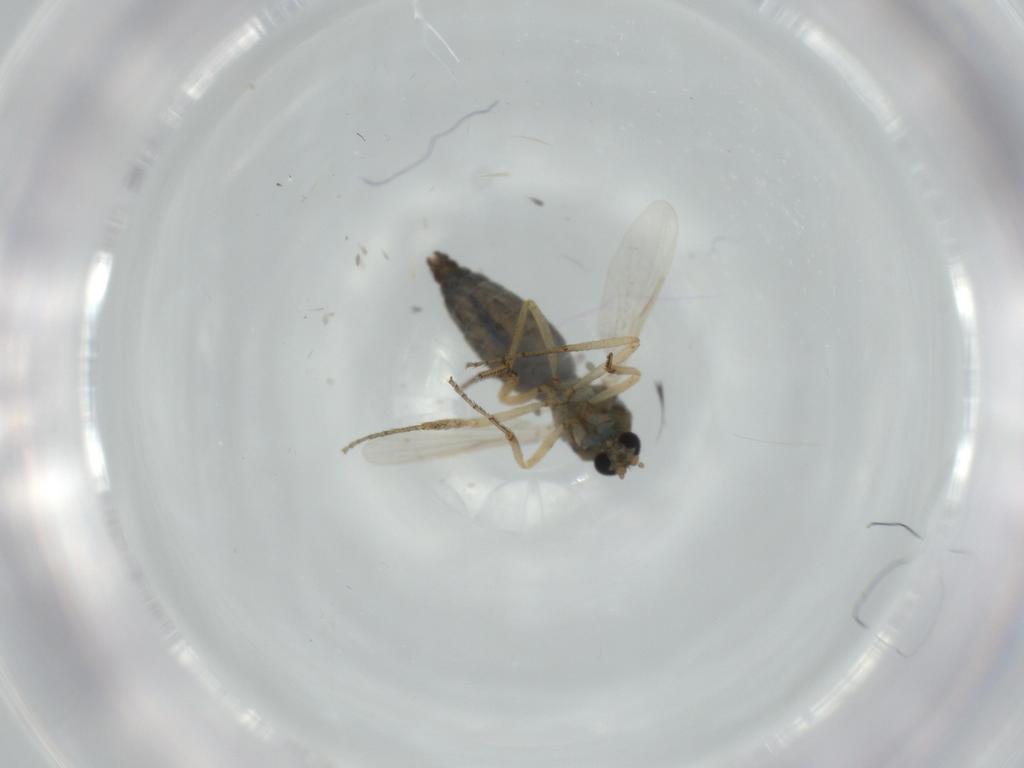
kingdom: Animalia
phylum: Arthropoda
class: Insecta
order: Diptera
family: Ceratopogonidae
